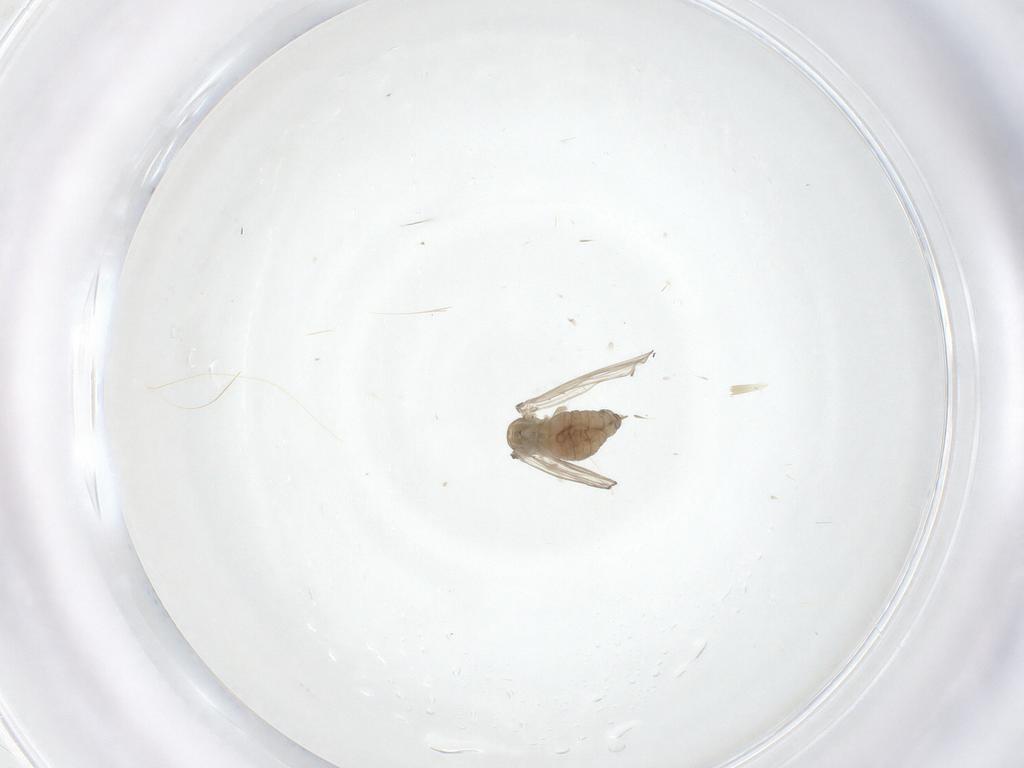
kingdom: Animalia
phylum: Arthropoda
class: Insecta
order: Diptera
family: Psychodidae
